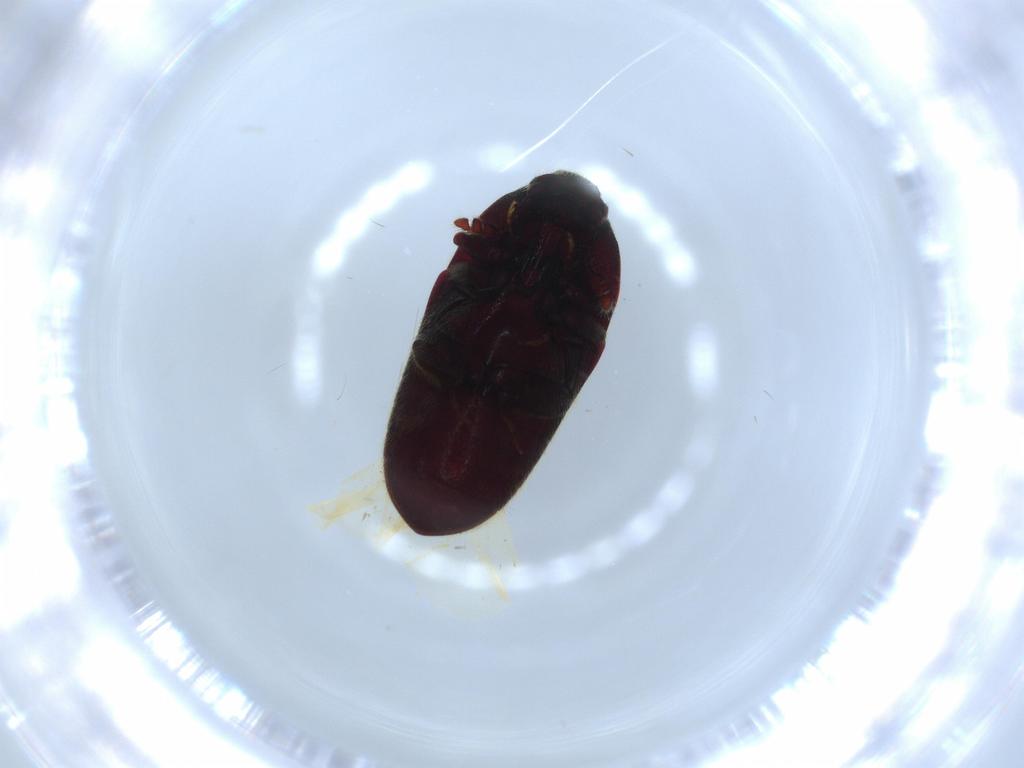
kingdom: Animalia
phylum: Arthropoda
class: Insecta
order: Coleoptera
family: Throscidae
